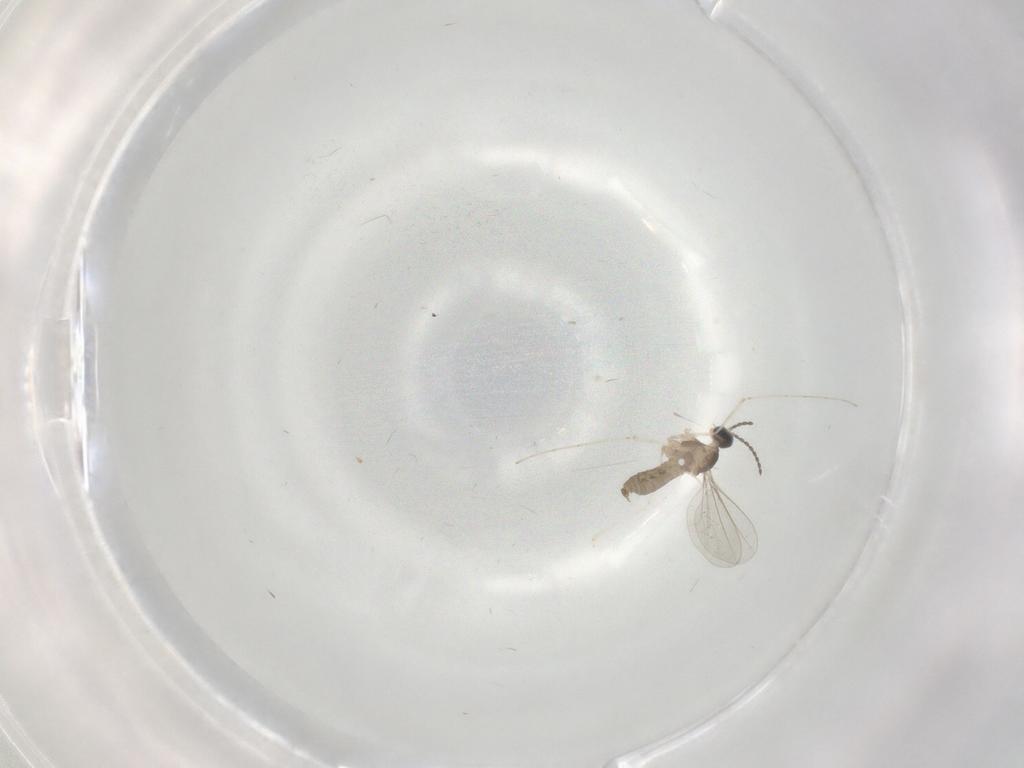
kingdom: Animalia
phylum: Arthropoda
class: Insecta
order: Diptera
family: Cecidomyiidae
